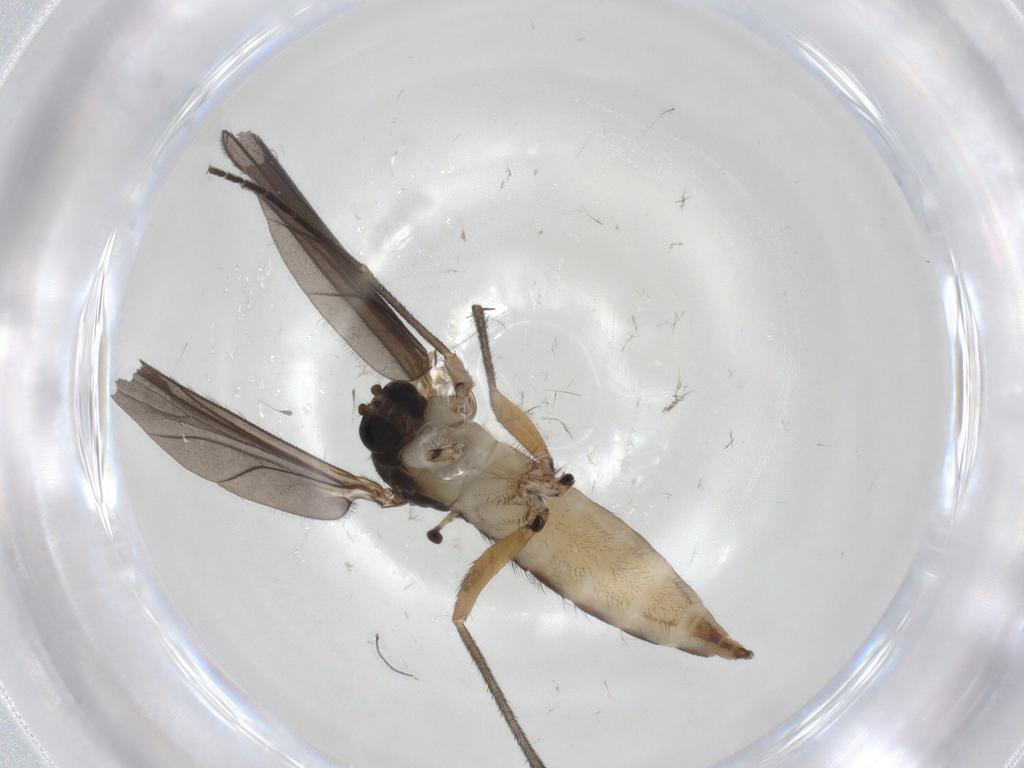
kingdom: Animalia
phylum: Arthropoda
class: Insecta
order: Diptera
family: Sciaridae
